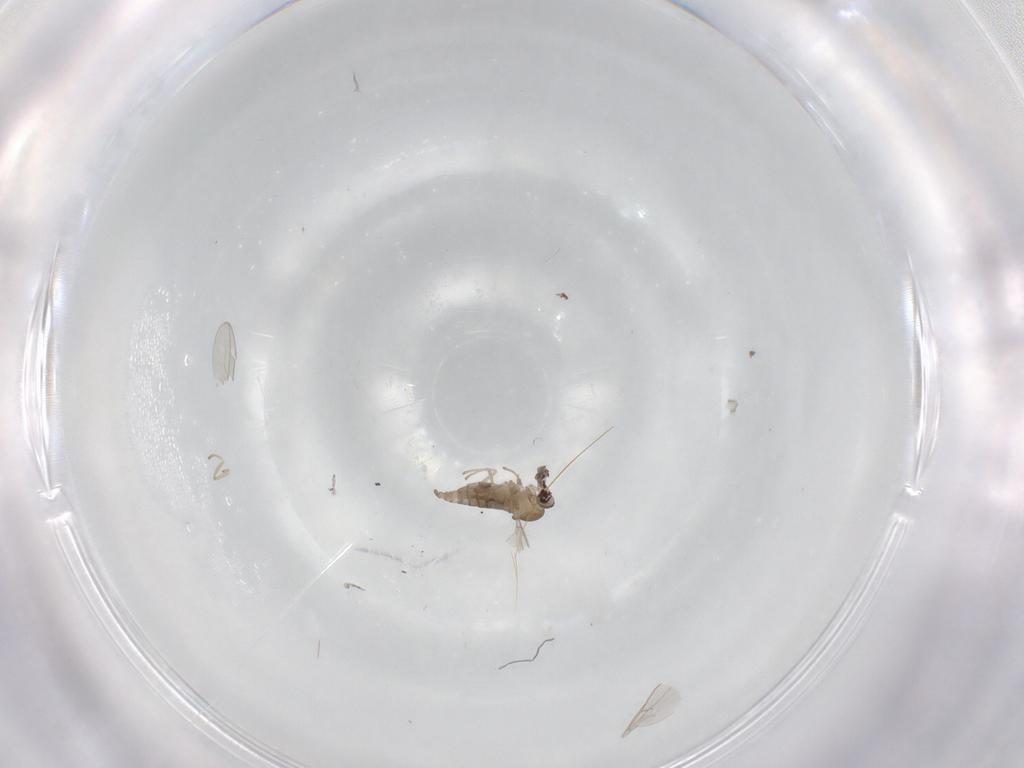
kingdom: Animalia
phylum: Arthropoda
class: Insecta
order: Diptera
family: Cecidomyiidae
